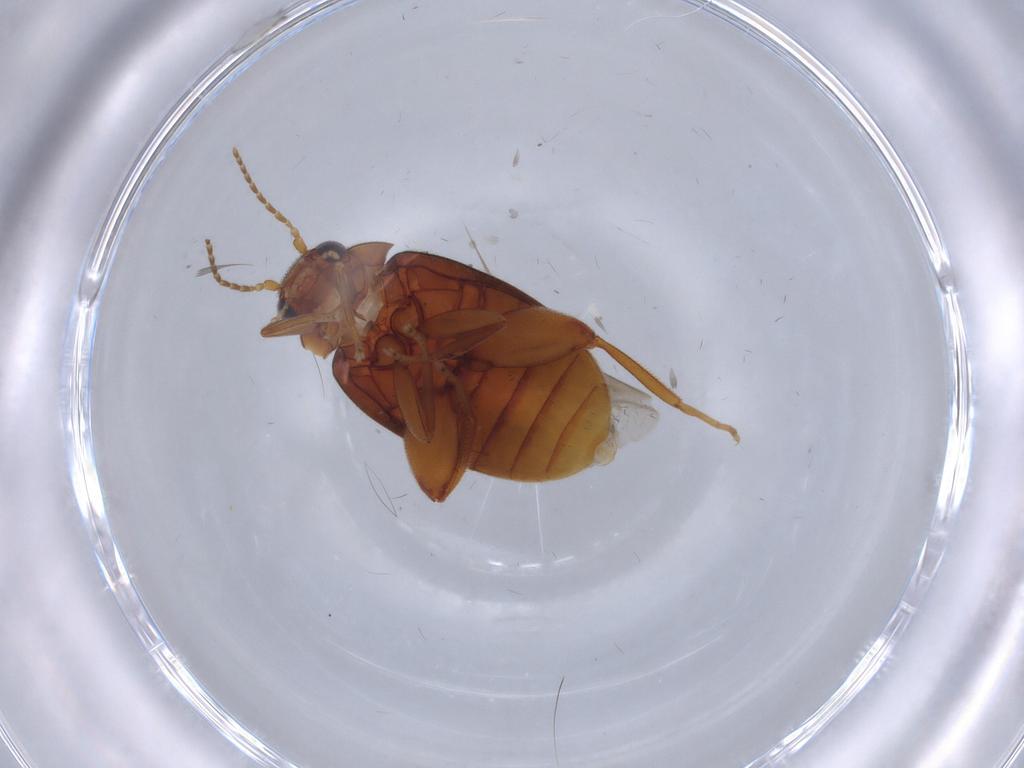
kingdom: Animalia
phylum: Arthropoda
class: Insecta
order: Coleoptera
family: Scirtidae
